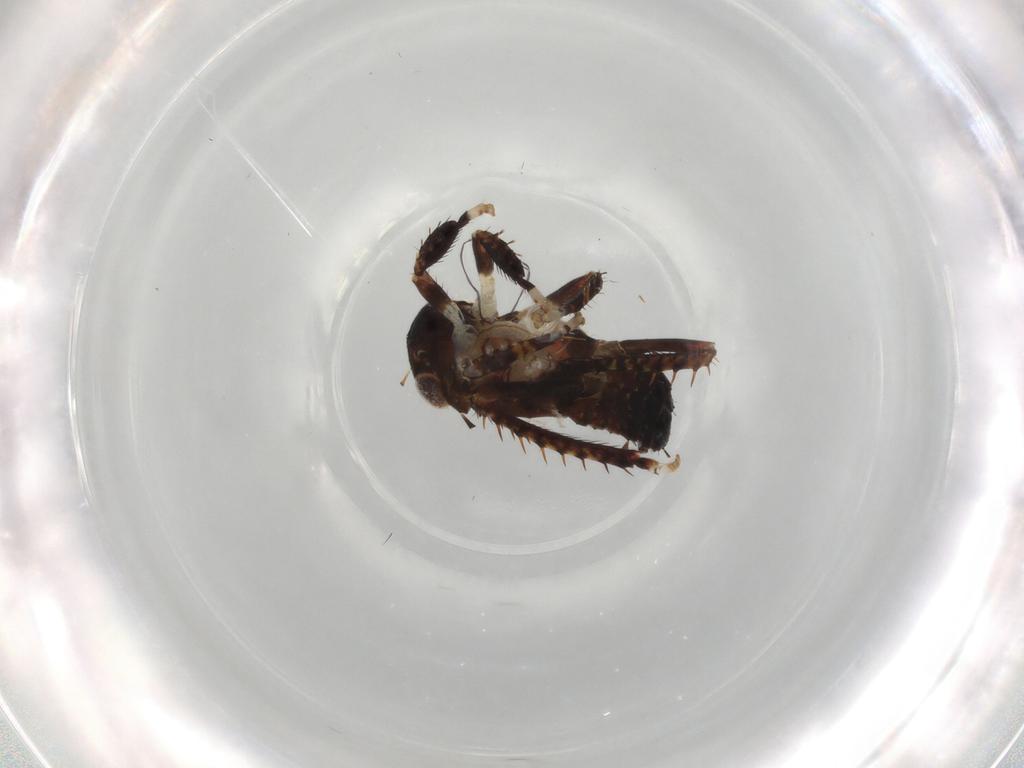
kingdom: Animalia
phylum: Arthropoda
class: Insecta
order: Hemiptera
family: Cicadellidae
